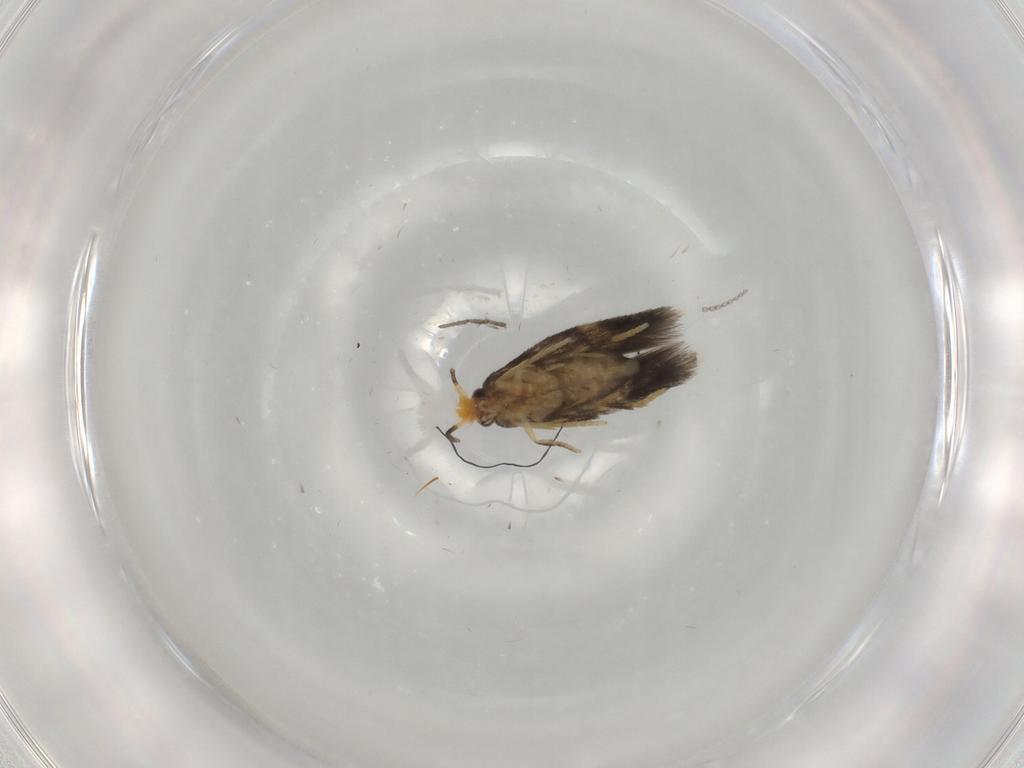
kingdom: Animalia
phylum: Arthropoda
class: Insecta
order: Lepidoptera
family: Nepticulidae
